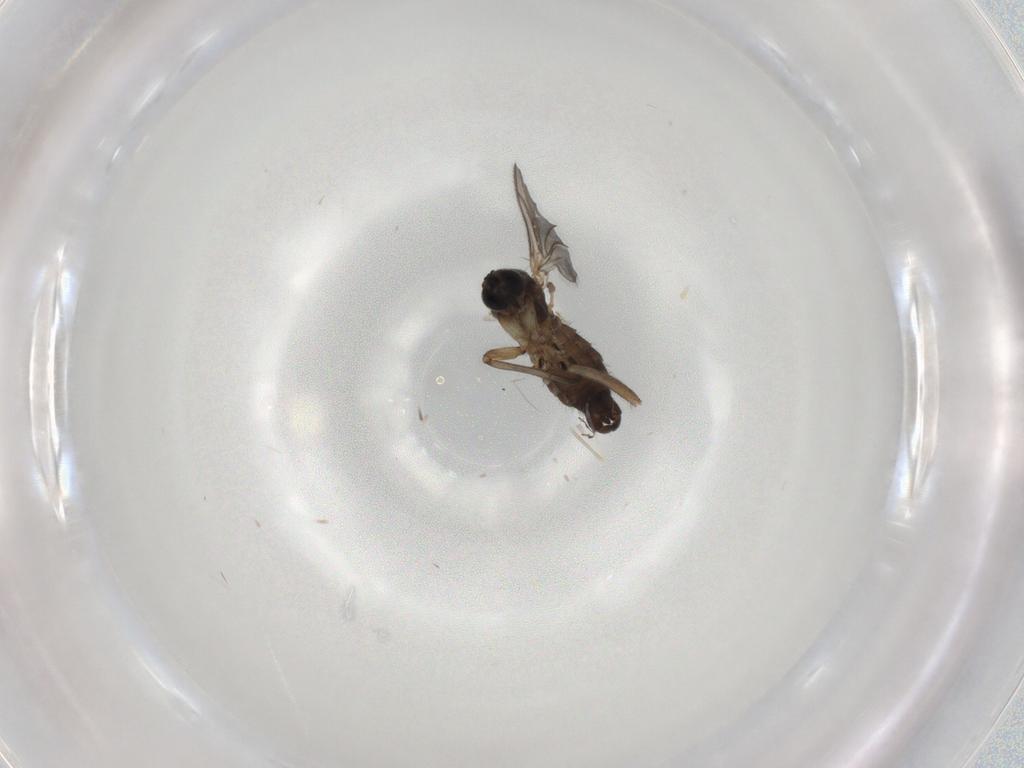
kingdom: Animalia
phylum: Arthropoda
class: Insecta
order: Diptera
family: Sciaridae
